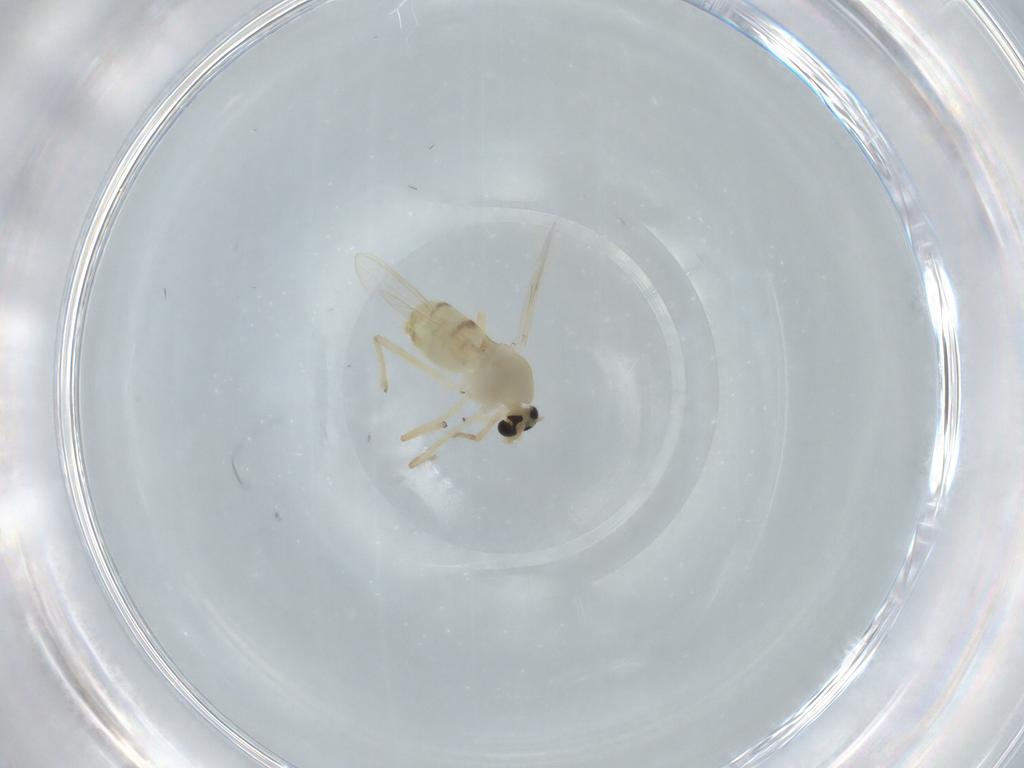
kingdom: Animalia
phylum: Arthropoda
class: Insecta
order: Diptera
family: Chironomidae
